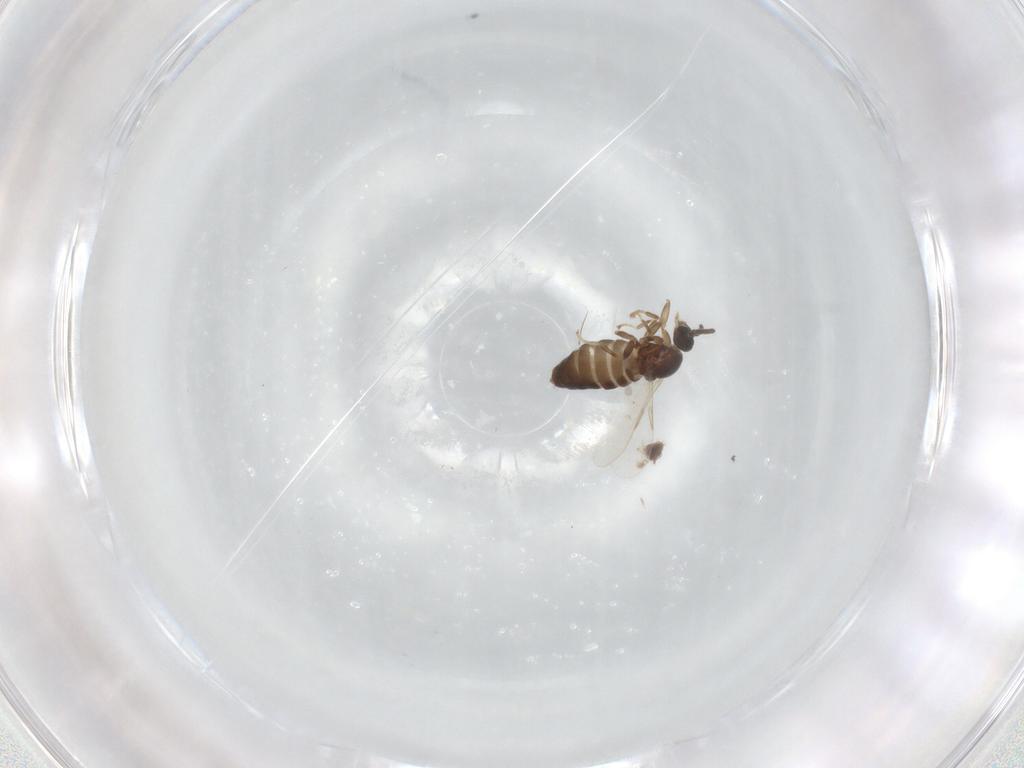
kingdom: Animalia
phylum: Arthropoda
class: Insecta
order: Diptera
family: Scatopsidae
